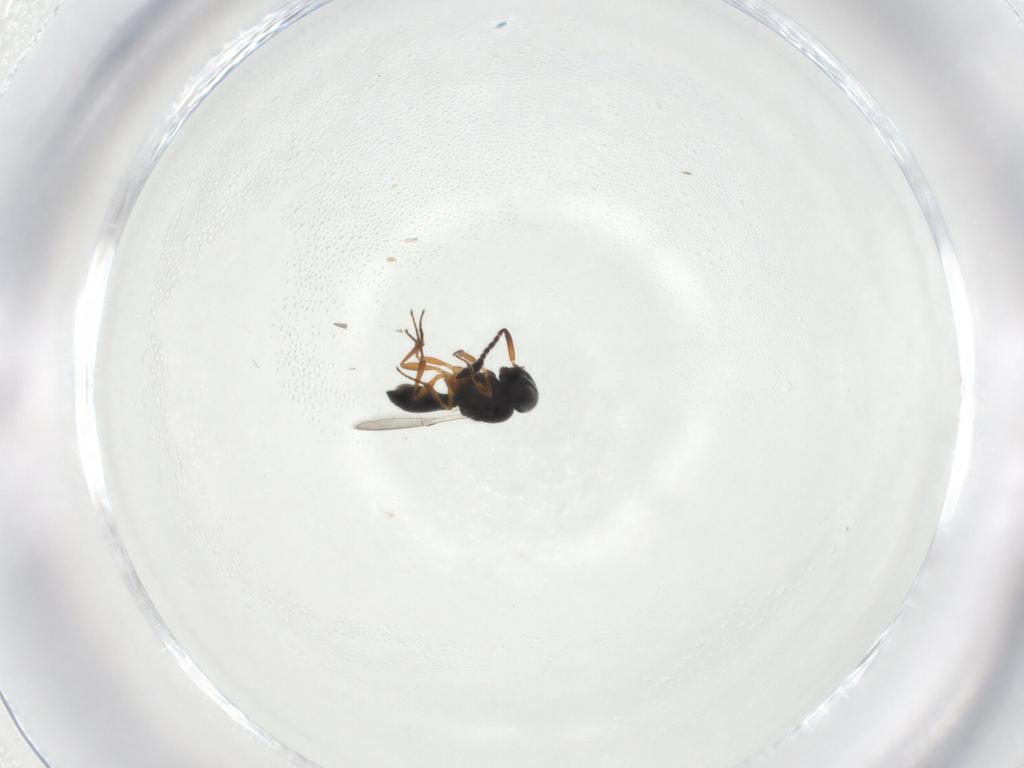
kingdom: Animalia
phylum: Arthropoda
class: Insecta
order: Hymenoptera
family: Scelionidae
